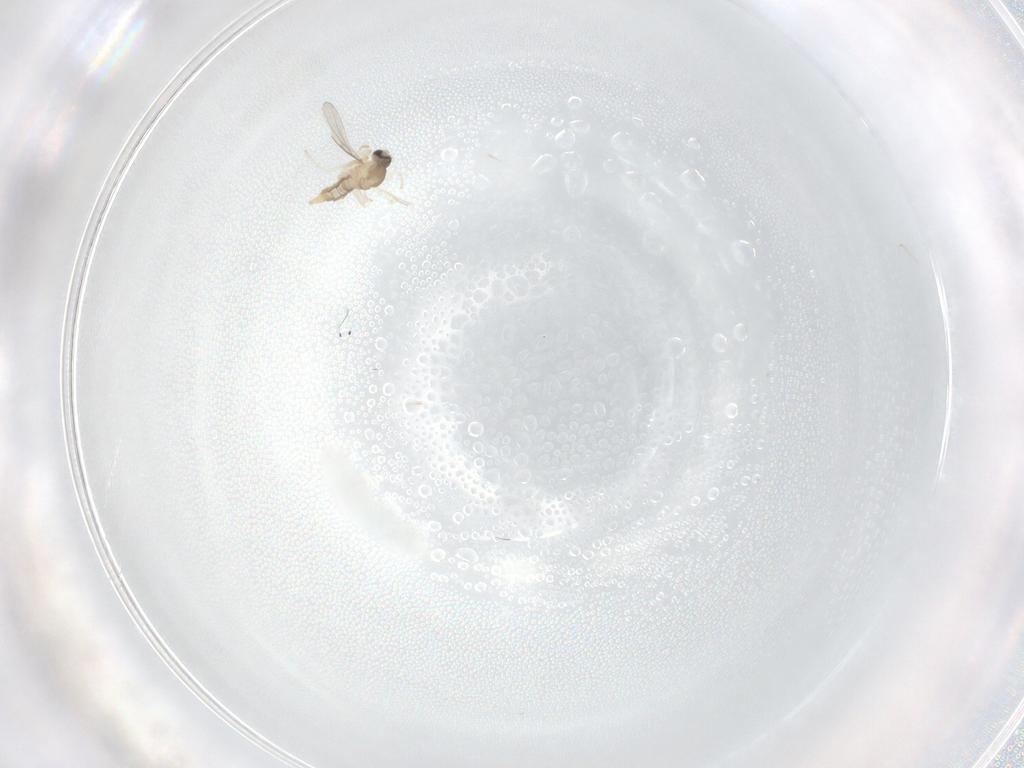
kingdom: Animalia
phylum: Arthropoda
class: Insecta
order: Diptera
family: Cecidomyiidae
